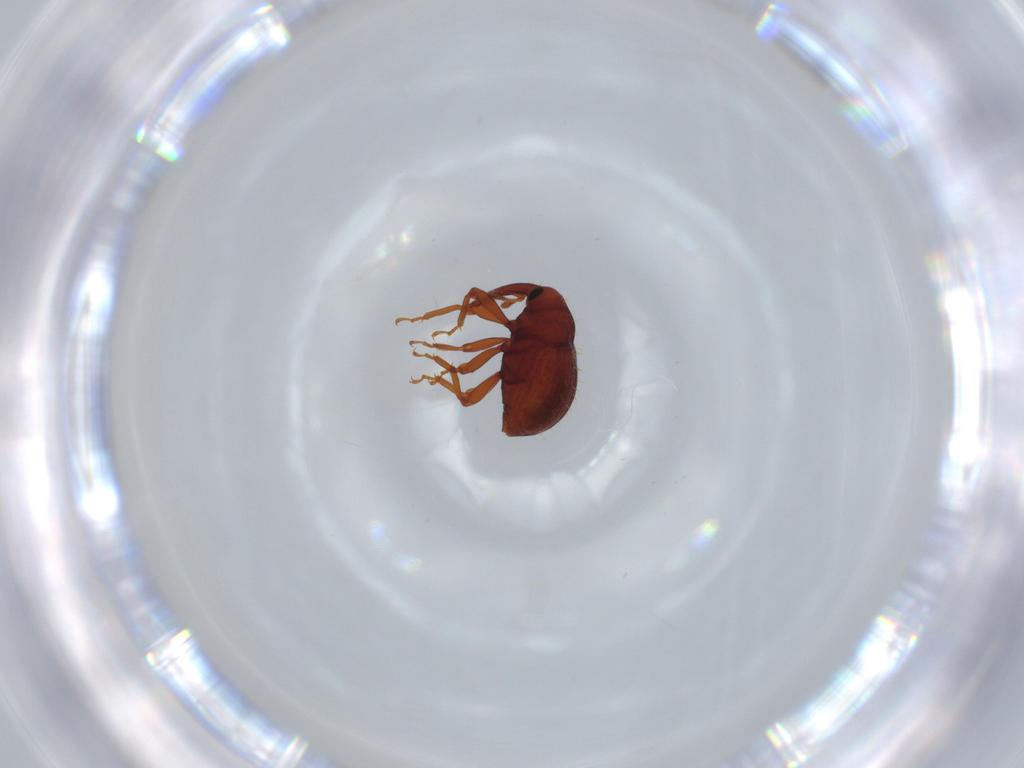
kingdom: Animalia
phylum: Arthropoda
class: Insecta
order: Coleoptera
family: Curculionidae
